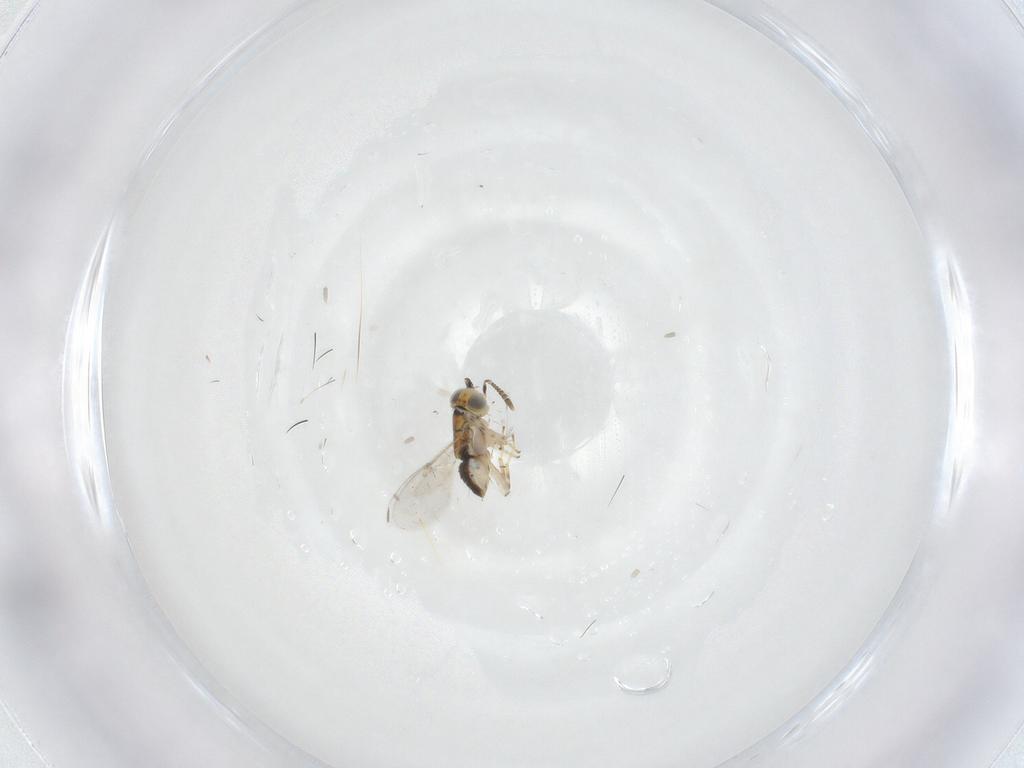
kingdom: Animalia
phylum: Arthropoda
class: Insecta
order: Hymenoptera
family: Encyrtidae
